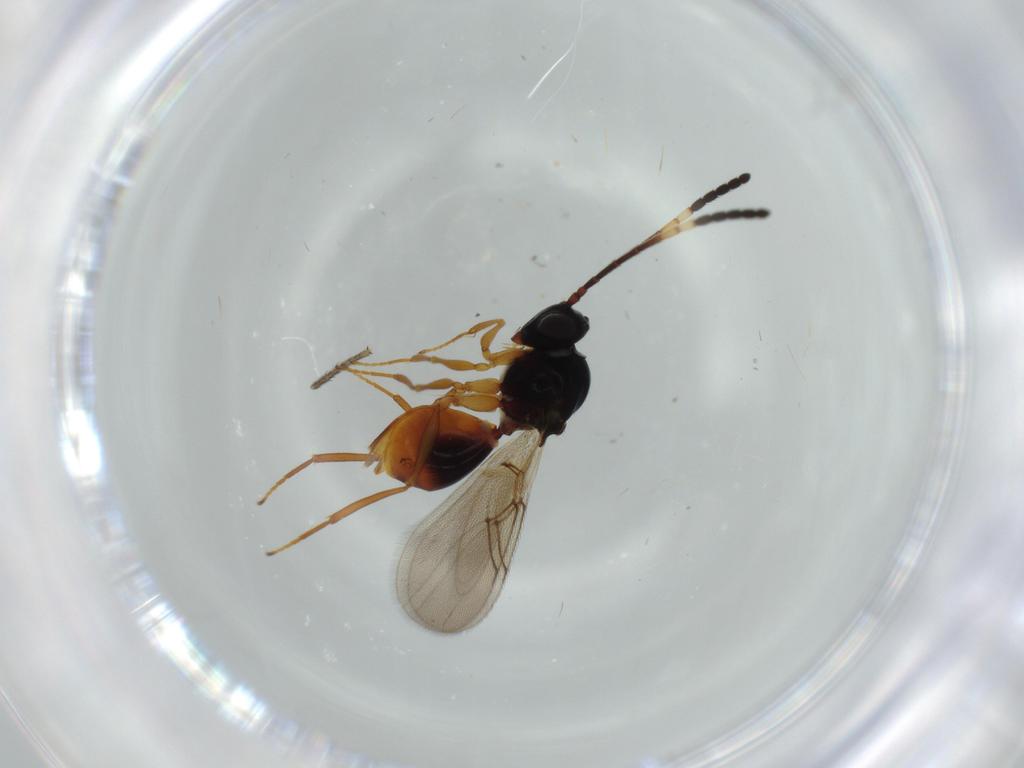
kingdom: Animalia
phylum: Arthropoda
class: Insecta
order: Hymenoptera
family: Figitidae
